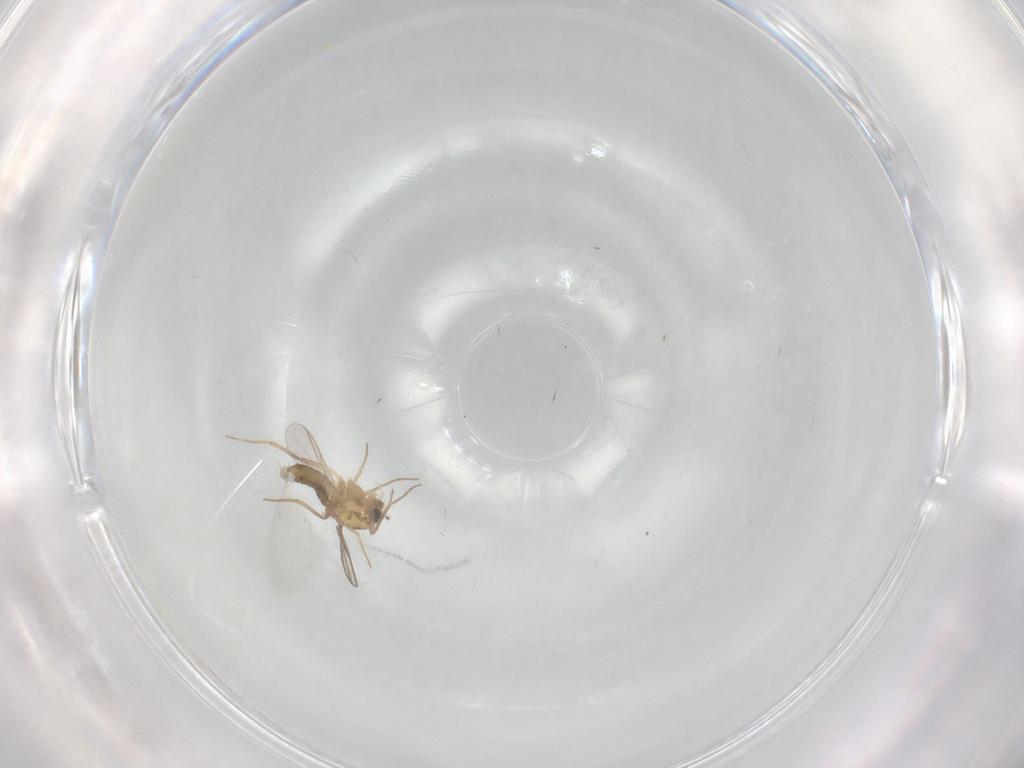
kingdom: Animalia
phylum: Arthropoda
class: Insecta
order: Diptera
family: Chironomidae
